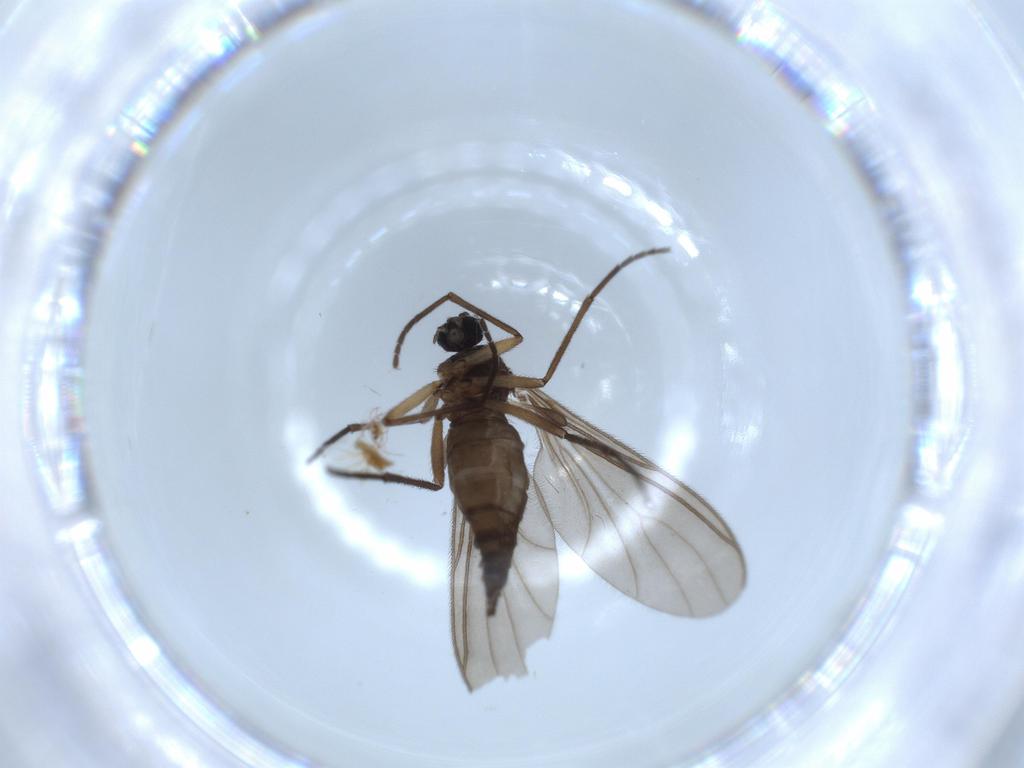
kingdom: Animalia
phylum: Arthropoda
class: Insecta
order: Diptera
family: Sciaridae
